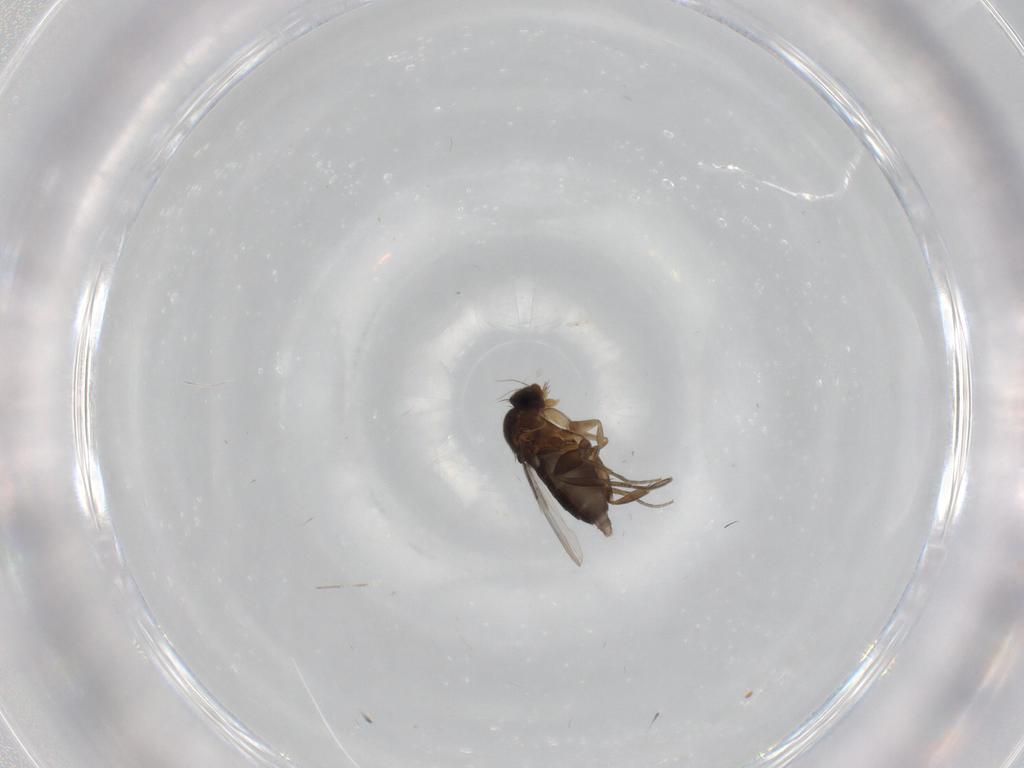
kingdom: Animalia
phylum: Arthropoda
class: Insecta
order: Diptera
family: Phoridae
